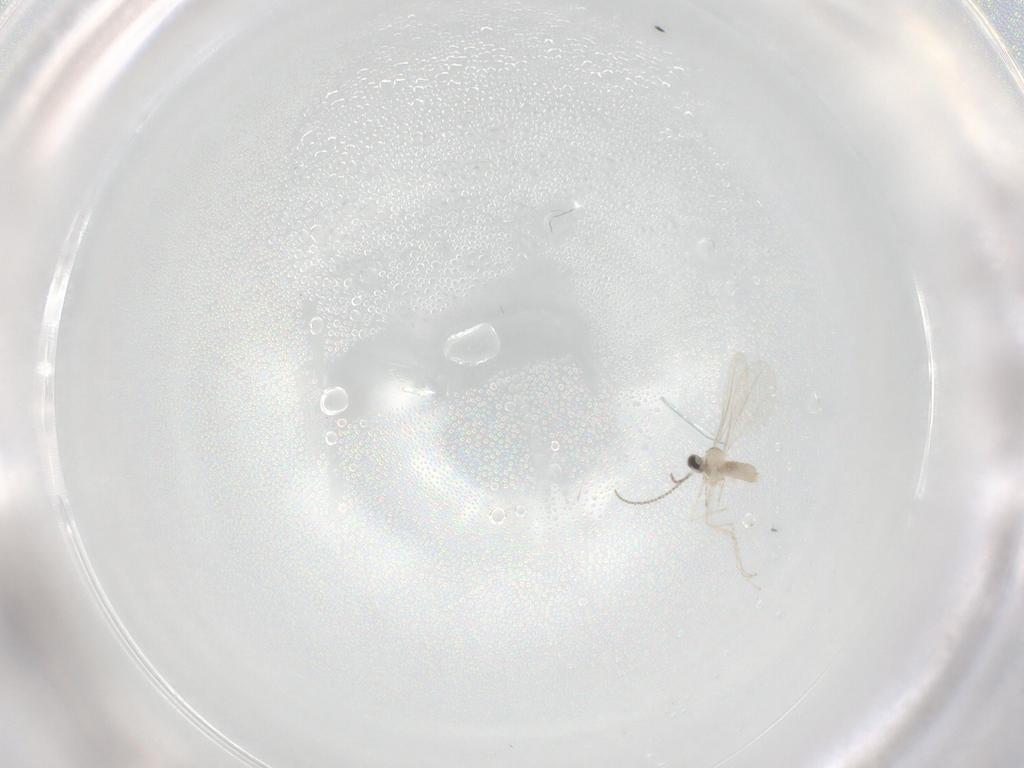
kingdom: Animalia
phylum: Arthropoda
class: Insecta
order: Diptera
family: Cecidomyiidae
